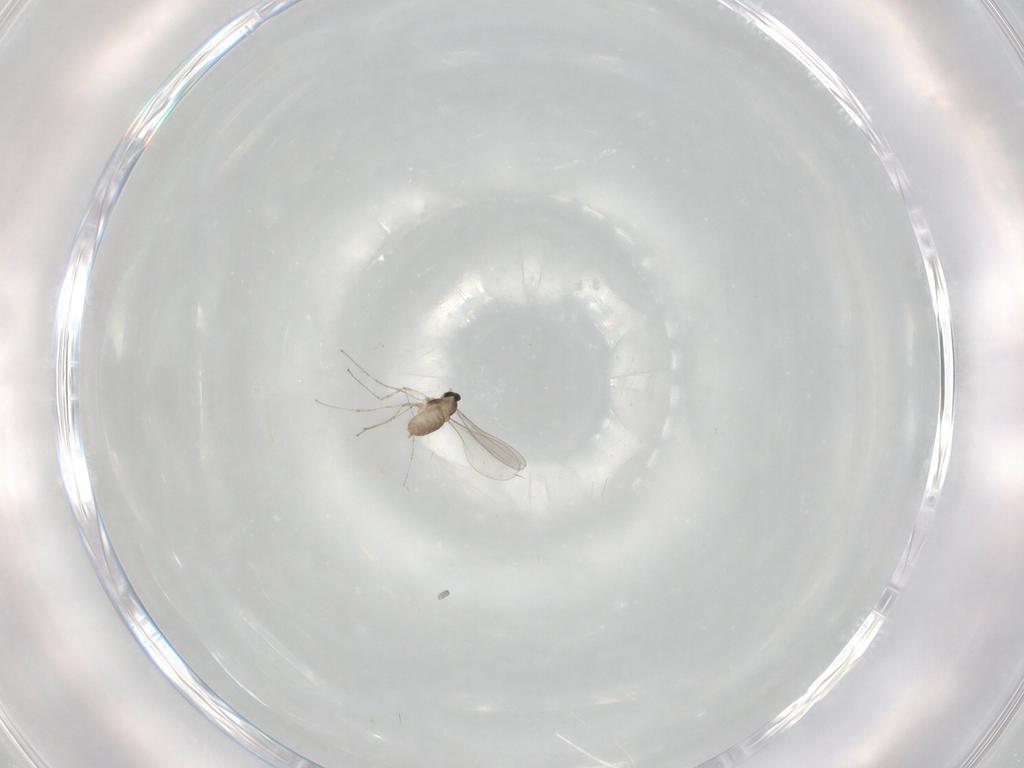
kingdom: Animalia
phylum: Arthropoda
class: Insecta
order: Diptera
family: Cecidomyiidae
